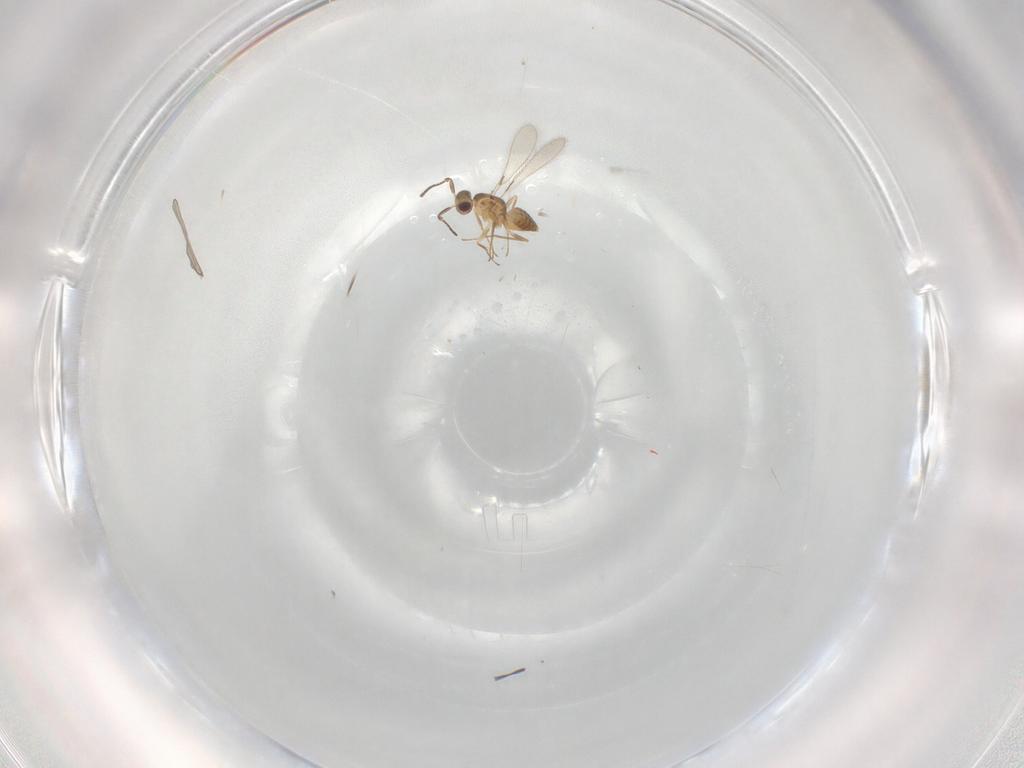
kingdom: Animalia
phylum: Arthropoda
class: Insecta
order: Hymenoptera
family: Mymaridae
